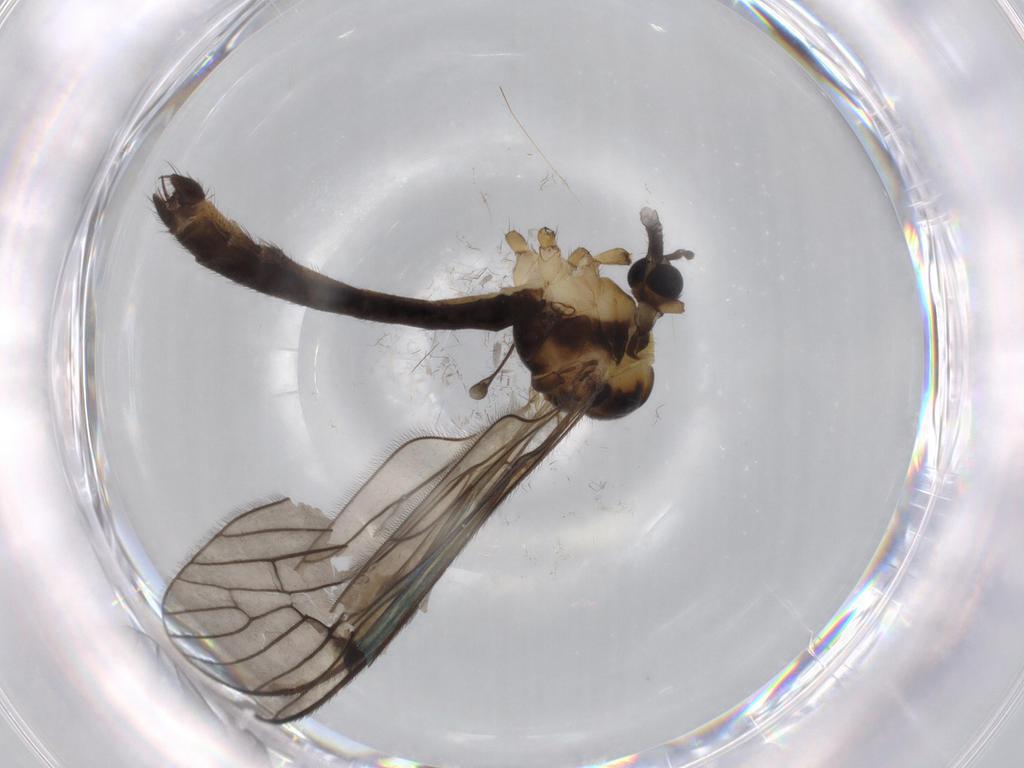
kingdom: Animalia
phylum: Arthropoda
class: Insecta
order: Diptera
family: Limoniidae
